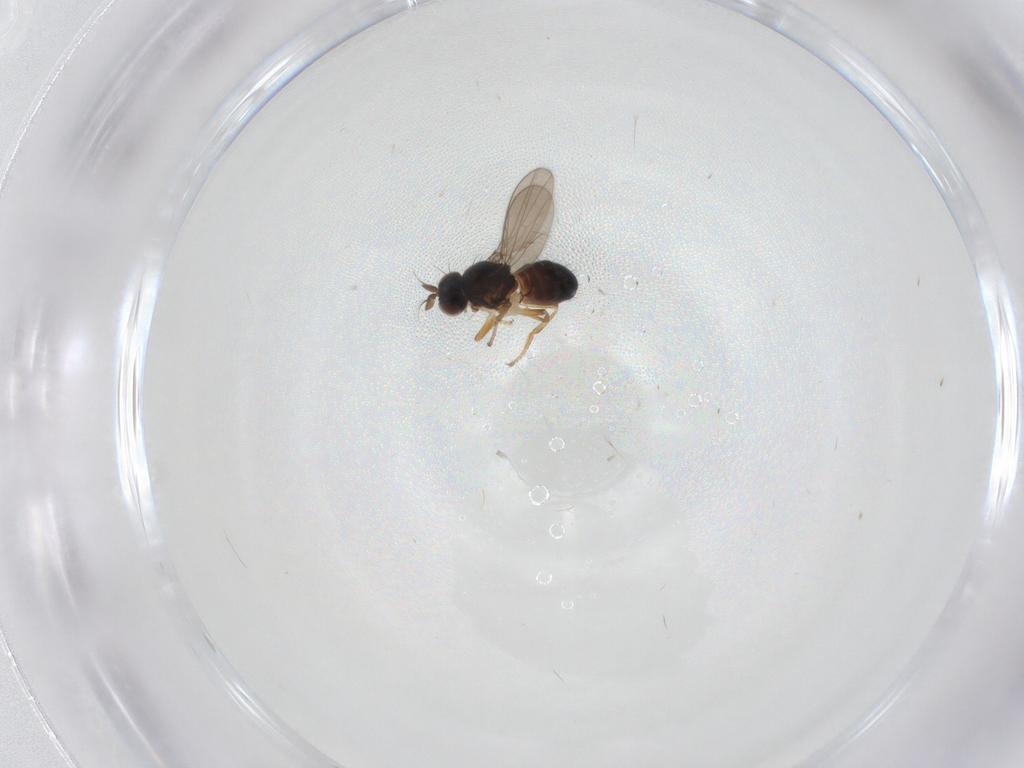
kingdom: Animalia
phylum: Arthropoda
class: Insecta
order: Diptera
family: Ephydridae
